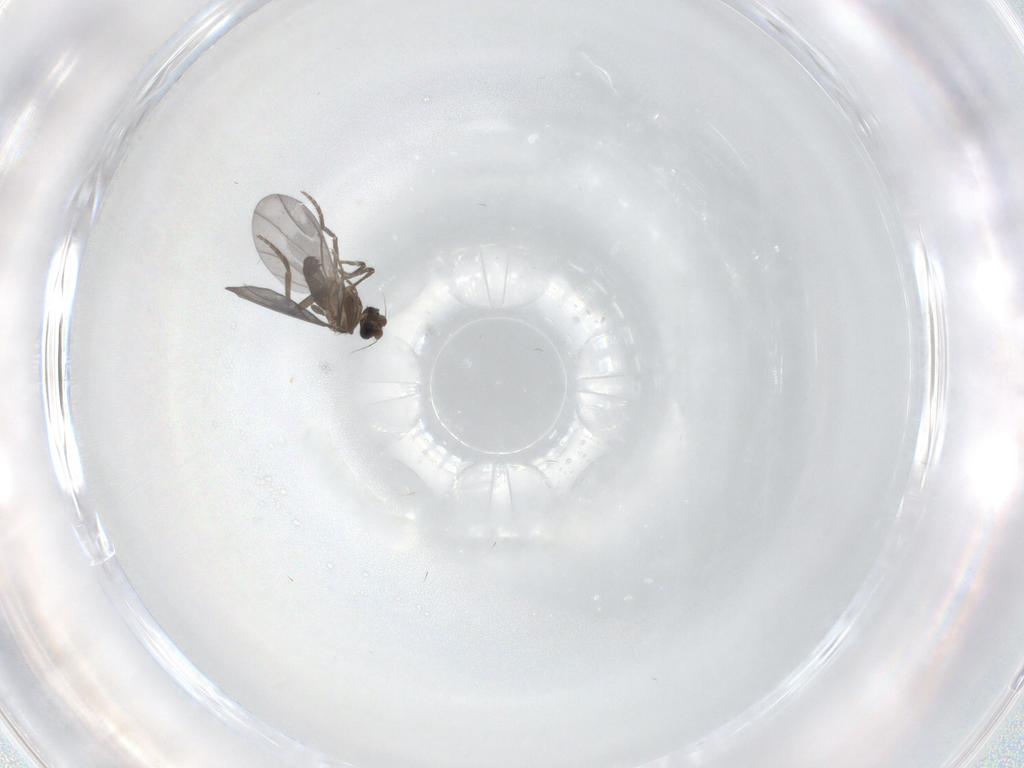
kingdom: Animalia
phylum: Arthropoda
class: Insecta
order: Diptera
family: Phoridae
